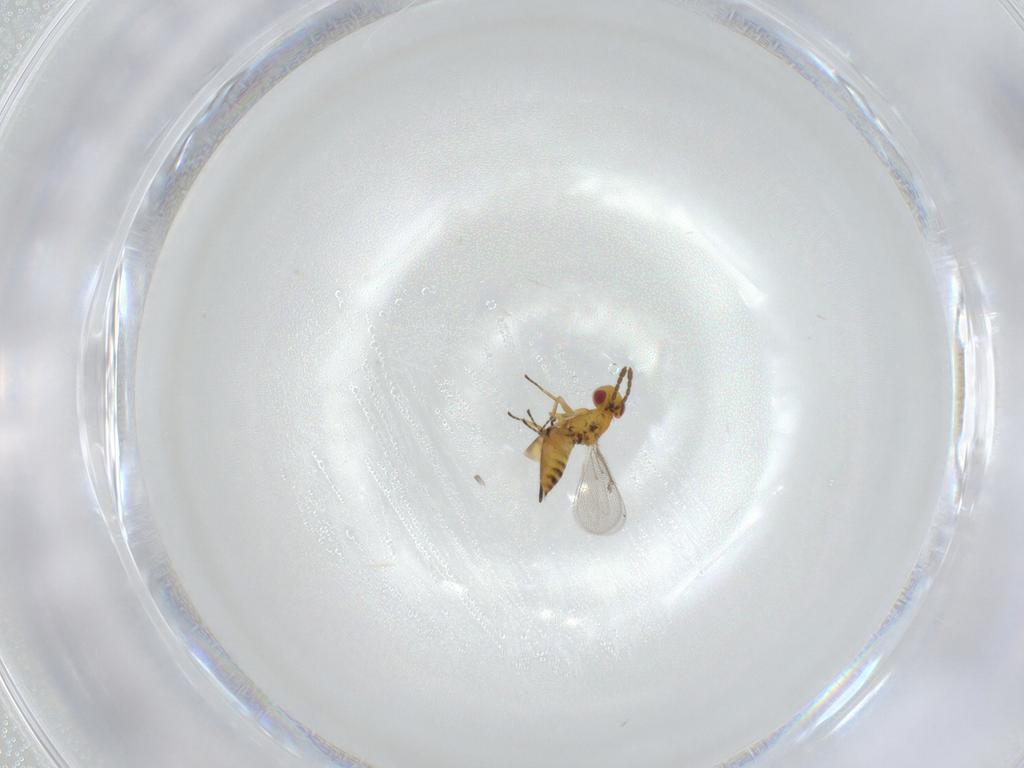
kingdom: Animalia
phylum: Arthropoda
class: Insecta
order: Hymenoptera
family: Eulophidae
